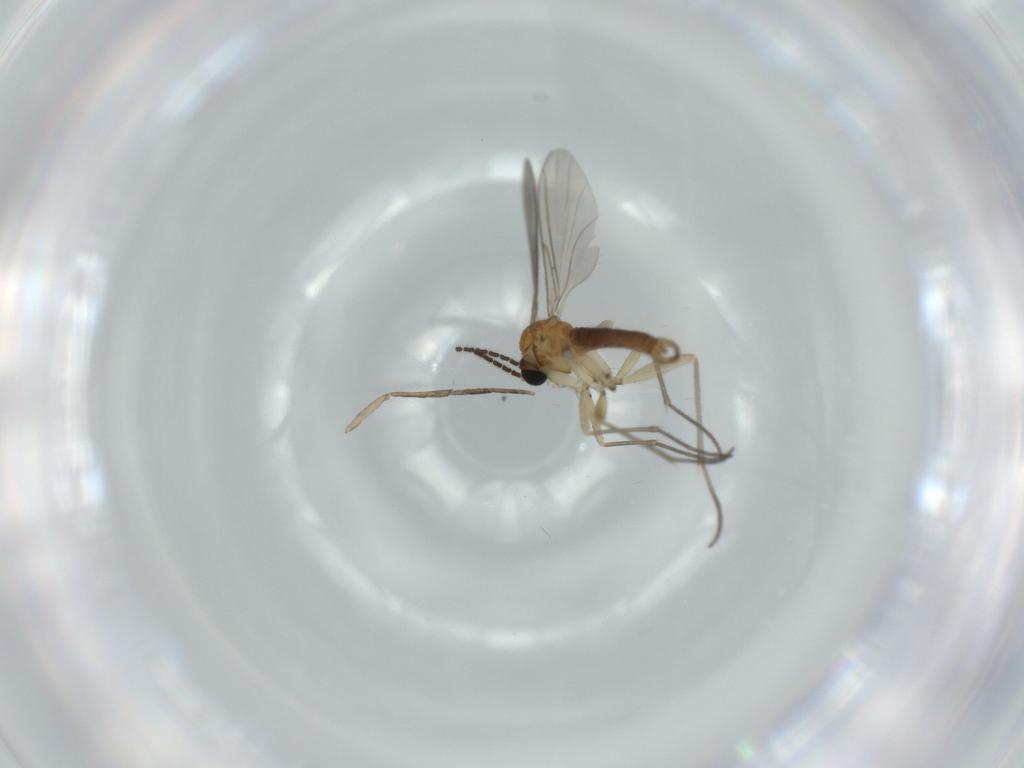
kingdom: Animalia
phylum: Arthropoda
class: Insecta
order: Diptera
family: Sciaridae
